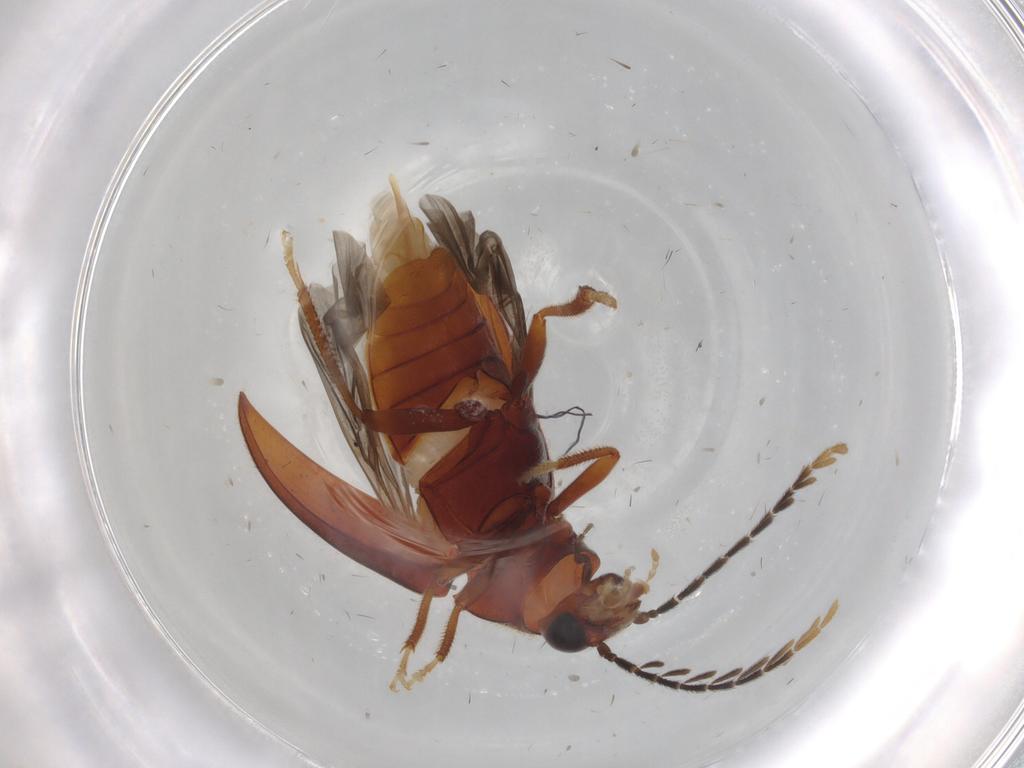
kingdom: Animalia
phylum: Arthropoda
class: Insecta
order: Coleoptera
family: Ptilodactylidae
